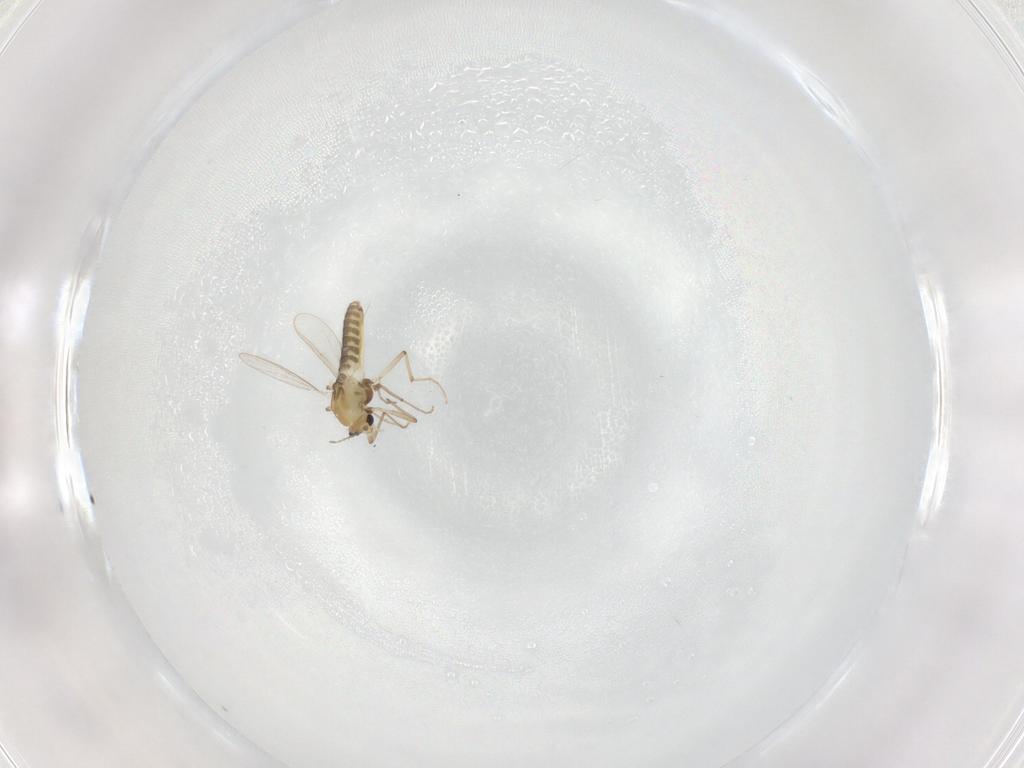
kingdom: Animalia
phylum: Arthropoda
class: Insecta
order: Diptera
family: Chironomidae
